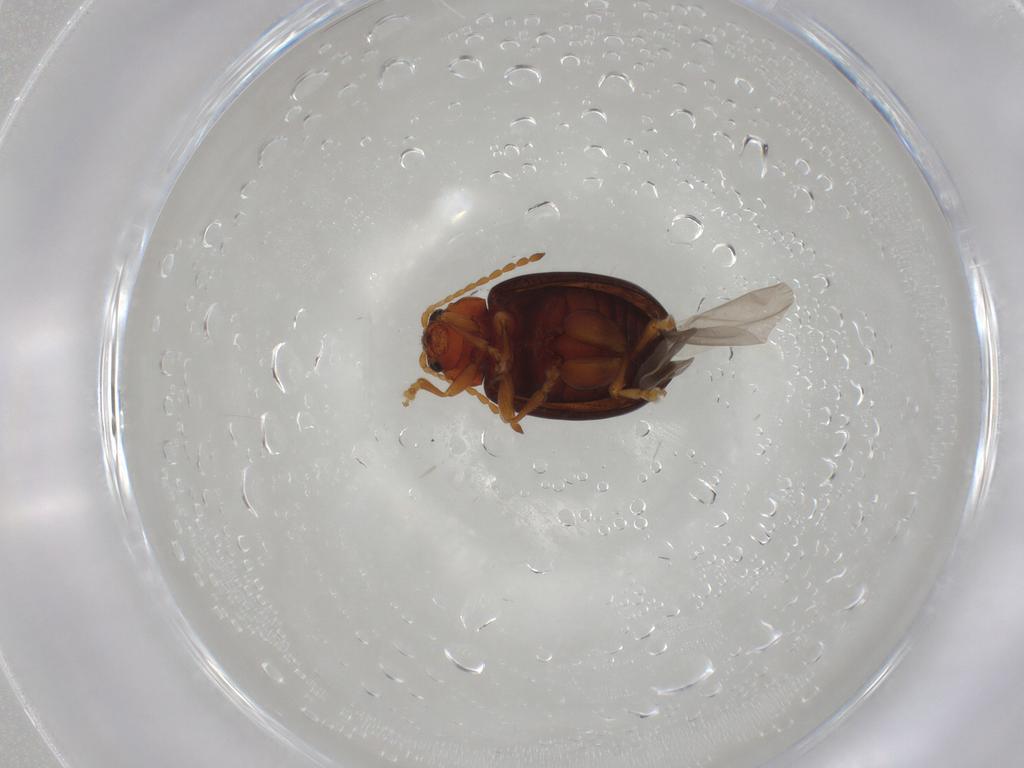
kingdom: Animalia
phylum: Arthropoda
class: Insecta
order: Coleoptera
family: Chrysomelidae
